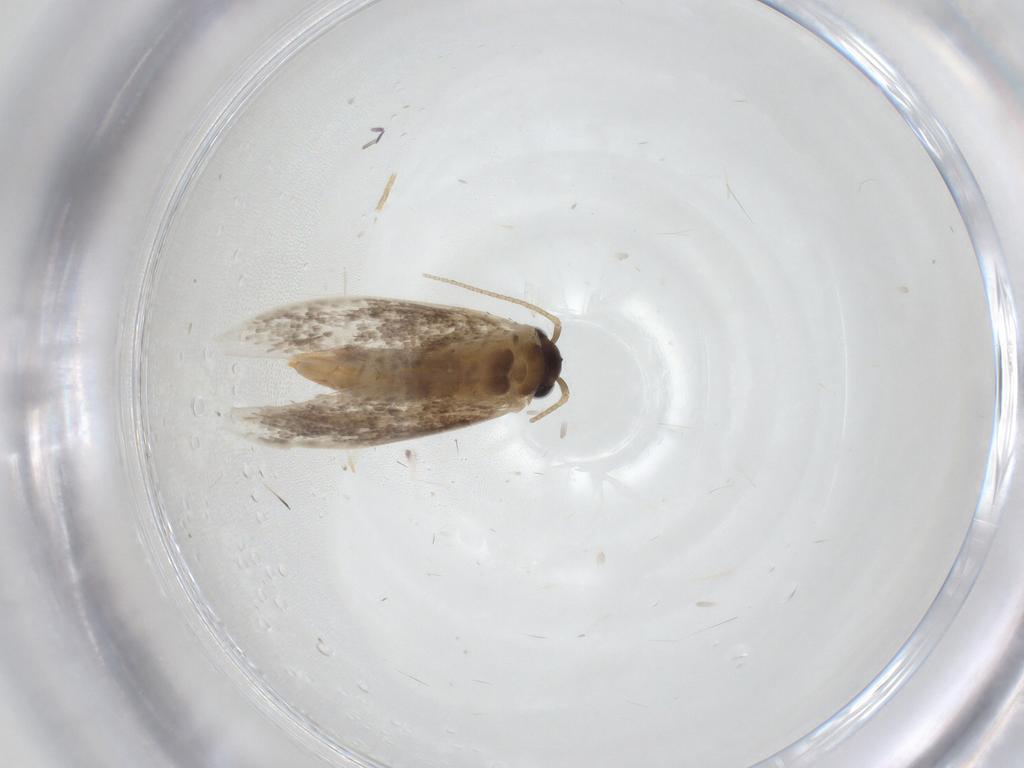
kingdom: Animalia
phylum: Arthropoda
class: Insecta
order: Lepidoptera
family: Tineidae
